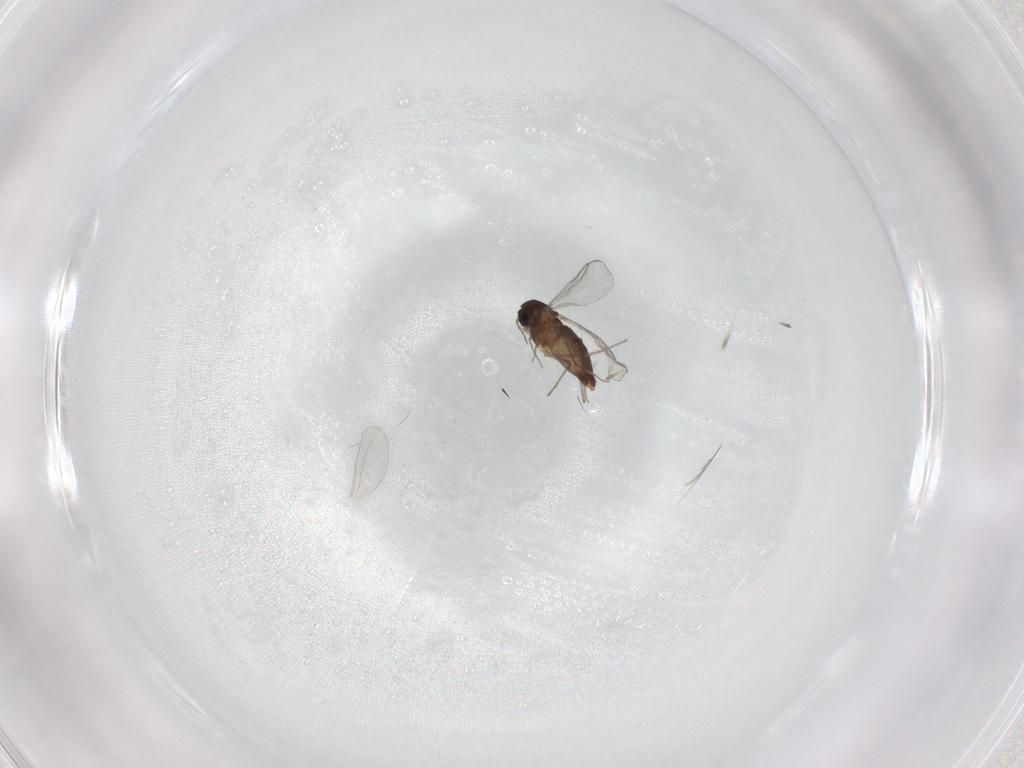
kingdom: Animalia
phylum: Arthropoda
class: Insecta
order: Diptera
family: Chironomidae
